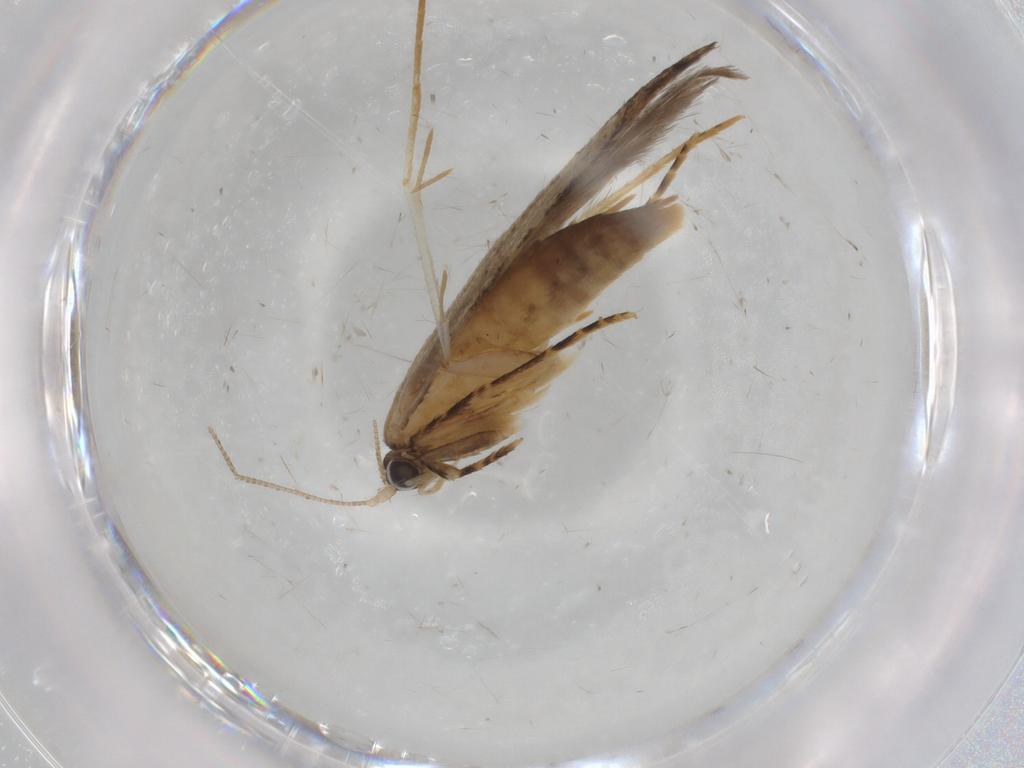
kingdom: Animalia
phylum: Arthropoda
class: Insecta
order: Lepidoptera
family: Tineidae
